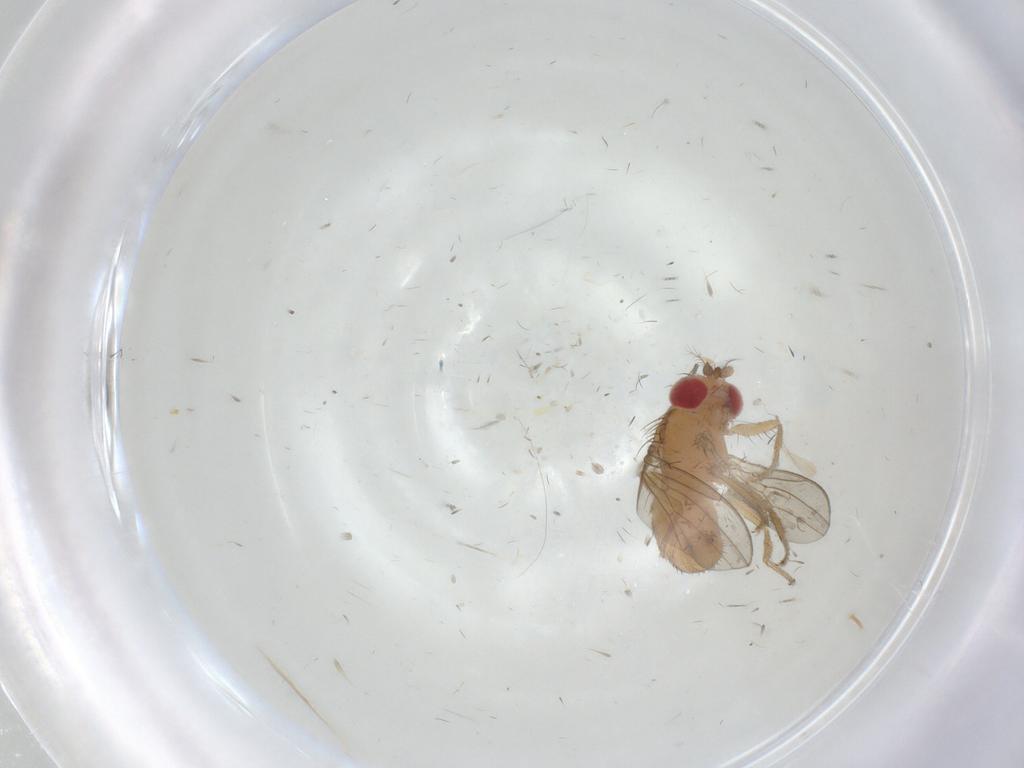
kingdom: Animalia
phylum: Arthropoda
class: Insecta
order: Diptera
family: Drosophilidae
